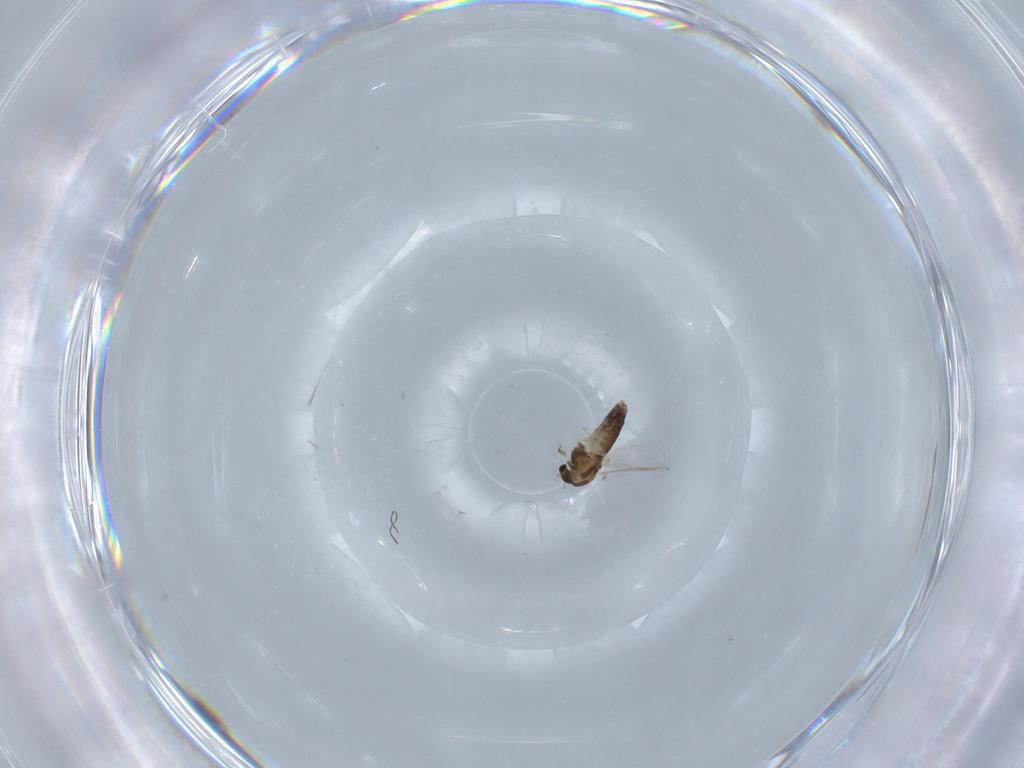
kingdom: Animalia
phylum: Arthropoda
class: Insecta
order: Diptera
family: Chironomidae
